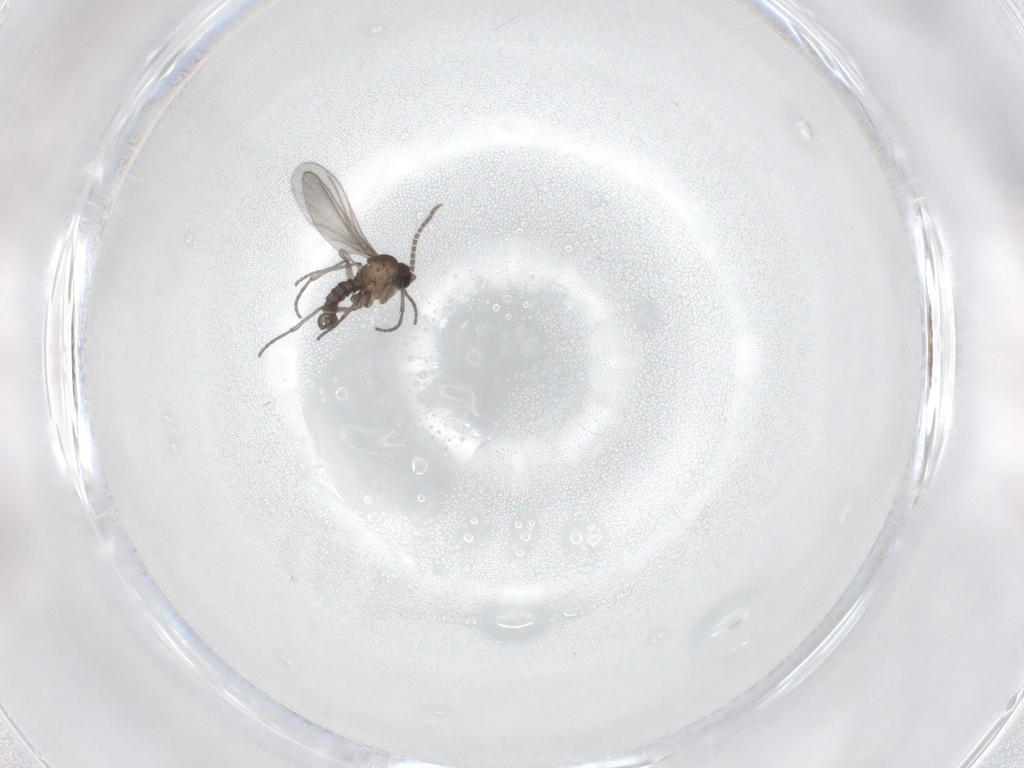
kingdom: Animalia
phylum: Arthropoda
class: Insecta
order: Diptera
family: Sciaridae
